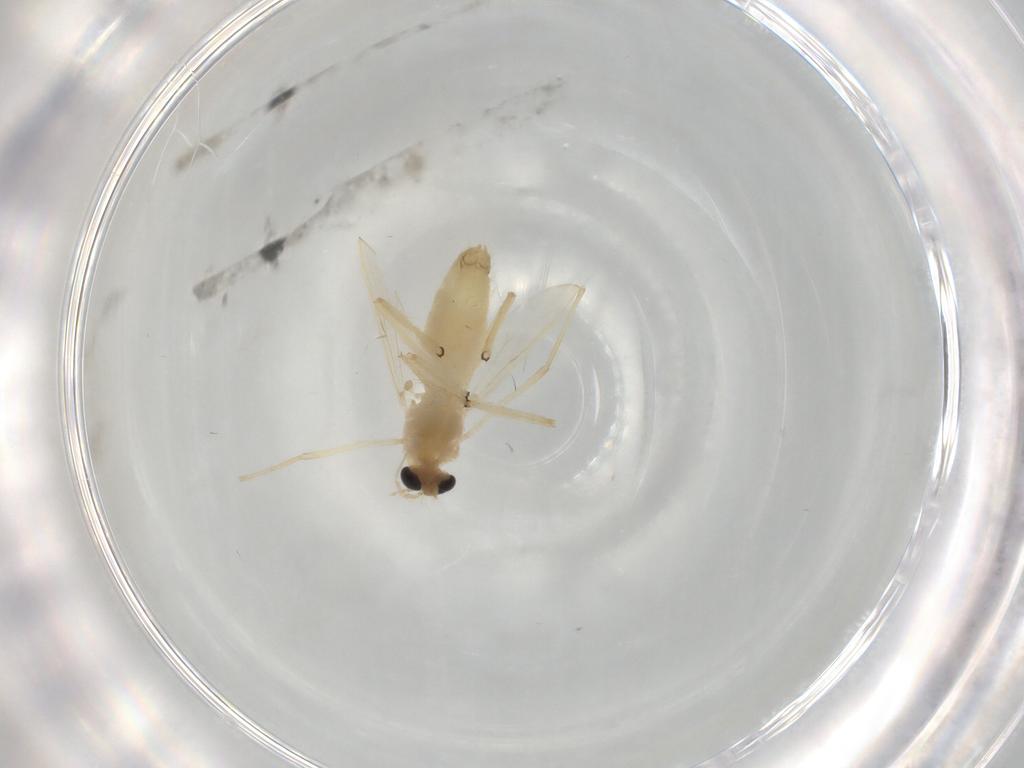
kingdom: Animalia
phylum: Arthropoda
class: Insecta
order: Diptera
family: Chironomidae
